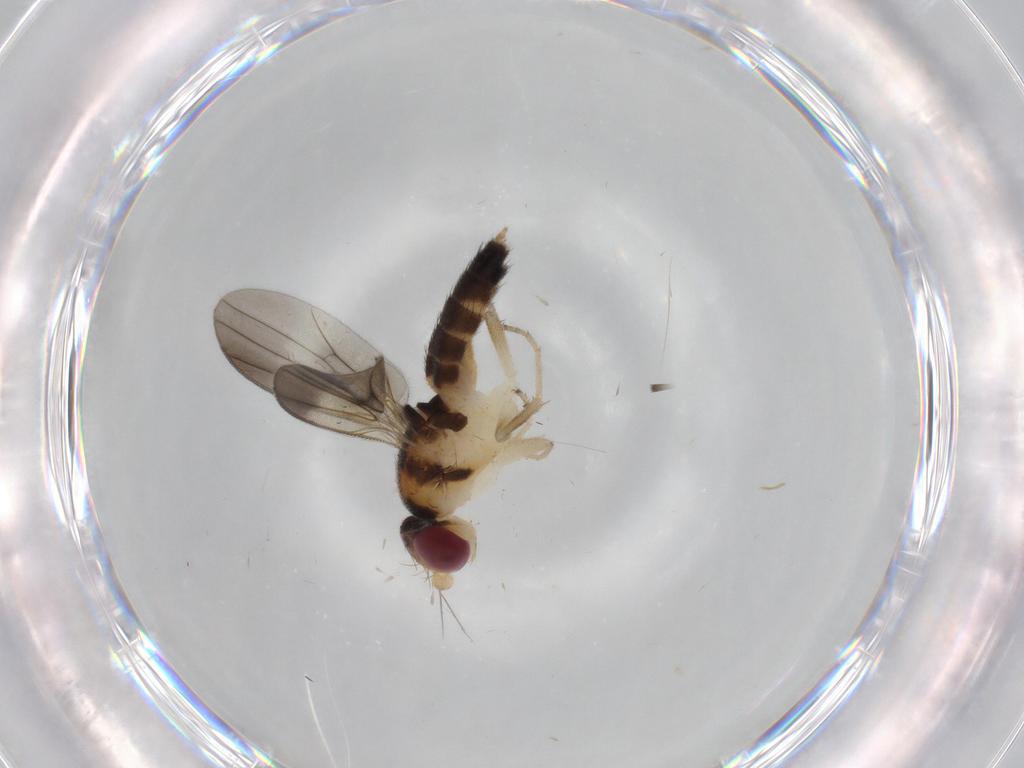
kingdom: Animalia
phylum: Arthropoda
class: Insecta
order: Diptera
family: Clusiidae
